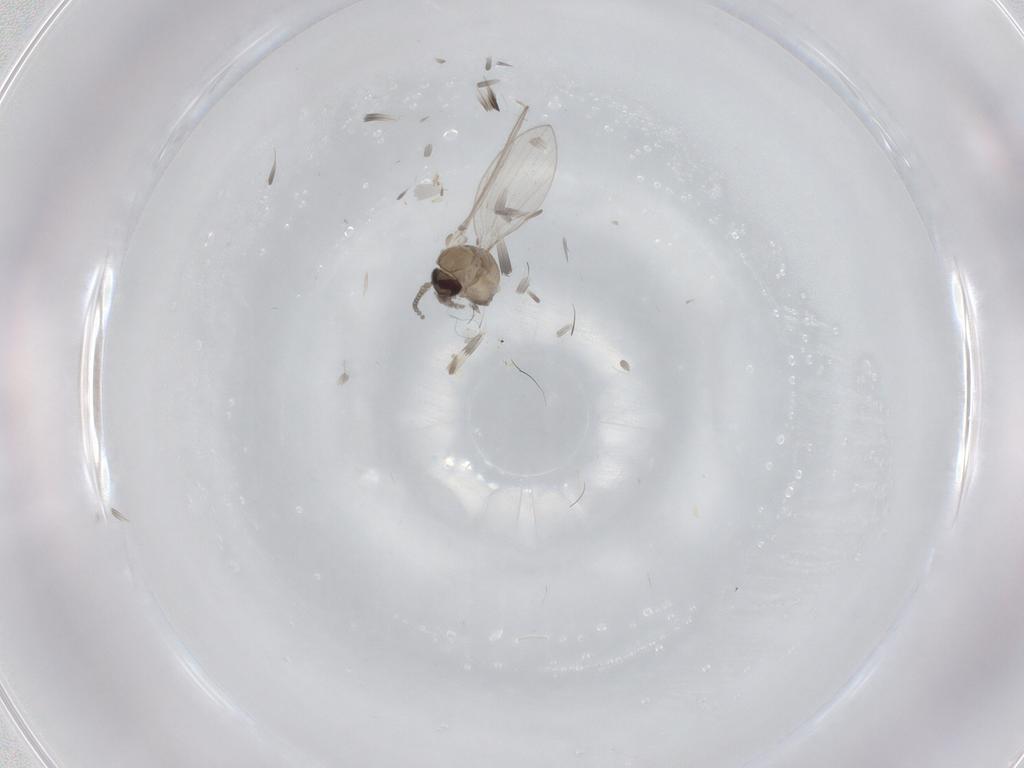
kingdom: Animalia
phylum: Arthropoda
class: Insecta
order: Diptera
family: Psychodidae
